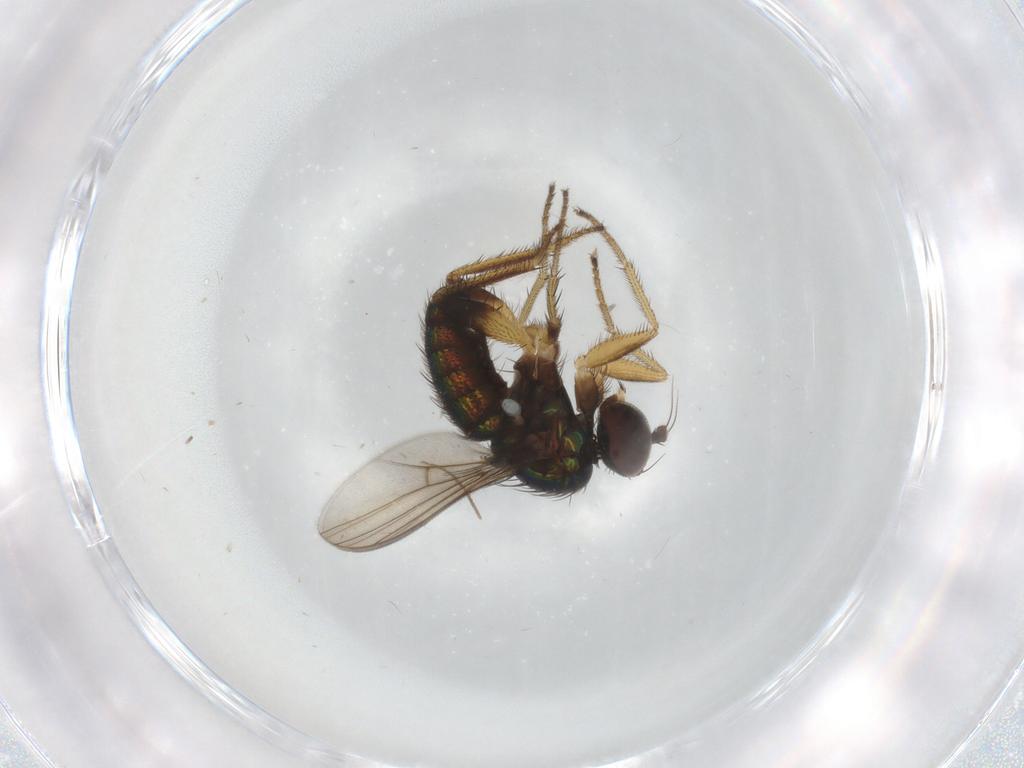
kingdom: Animalia
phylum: Arthropoda
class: Insecta
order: Diptera
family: Dolichopodidae
